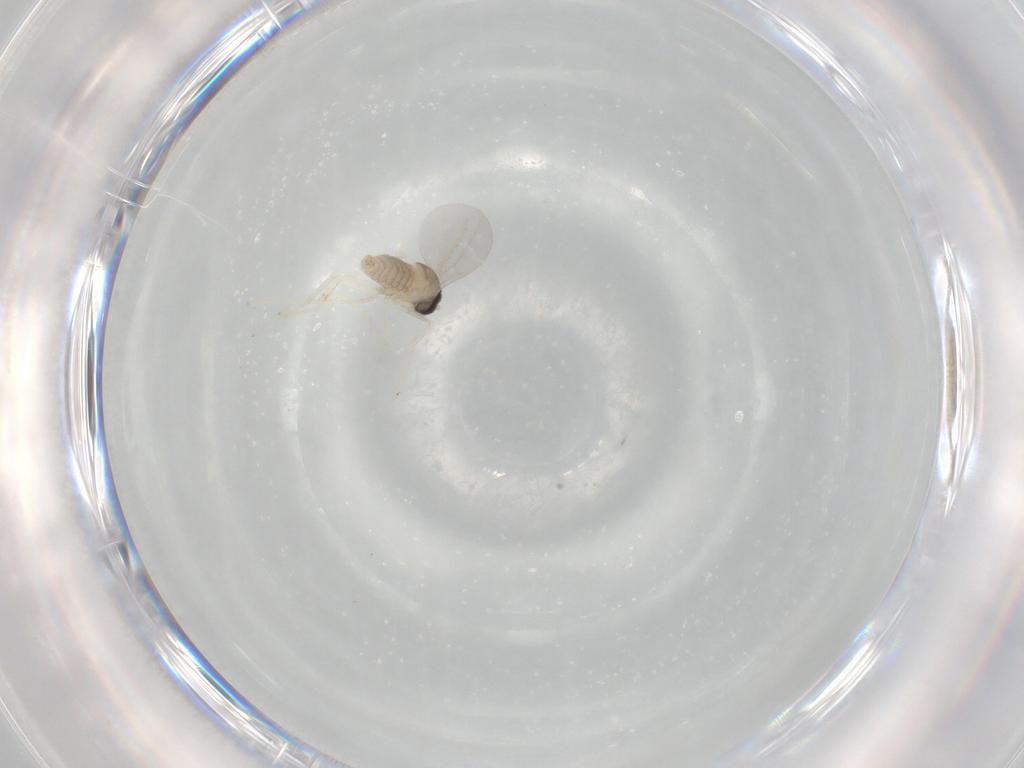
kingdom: Animalia
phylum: Arthropoda
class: Insecta
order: Diptera
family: Cecidomyiidae
